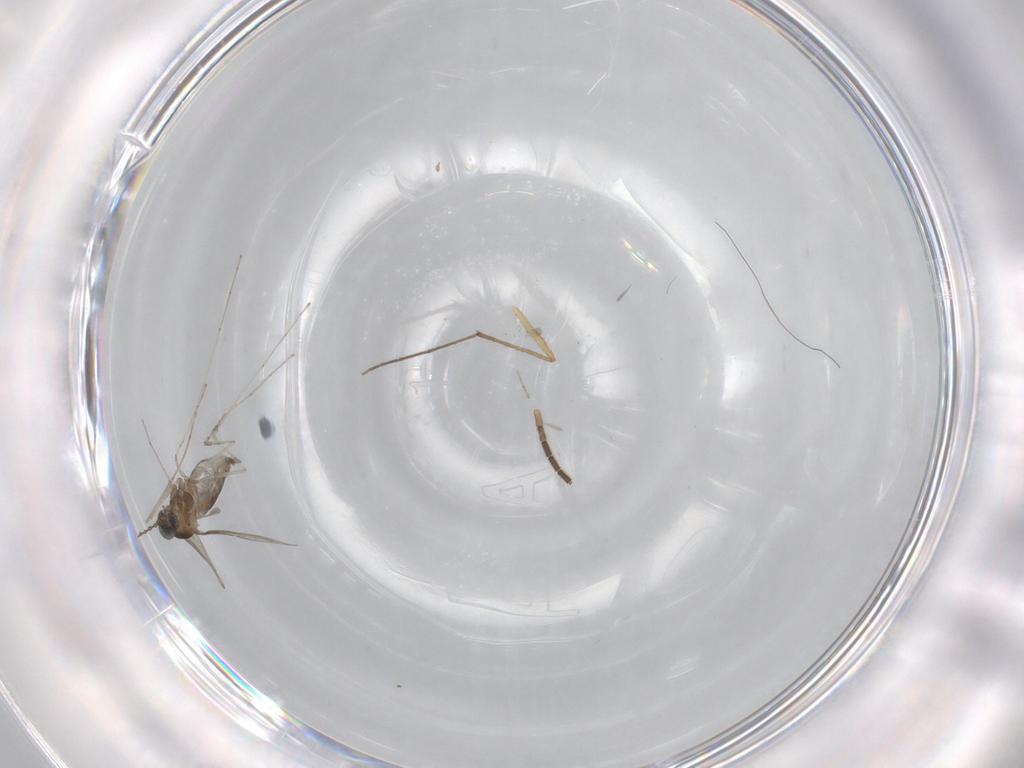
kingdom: Animalia
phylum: Arthropoda
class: Insecta
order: Diptera
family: Cecidomyiidae
